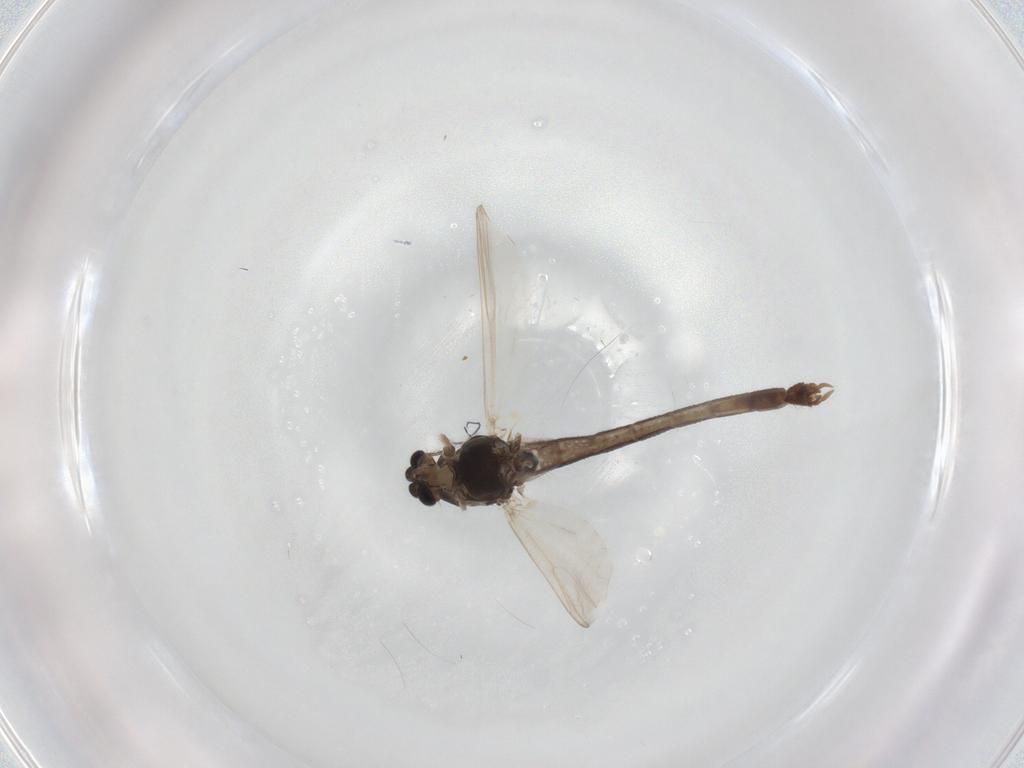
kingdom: Animalia
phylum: Arthropoda
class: Insecta
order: Diptera
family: Chironomidae
